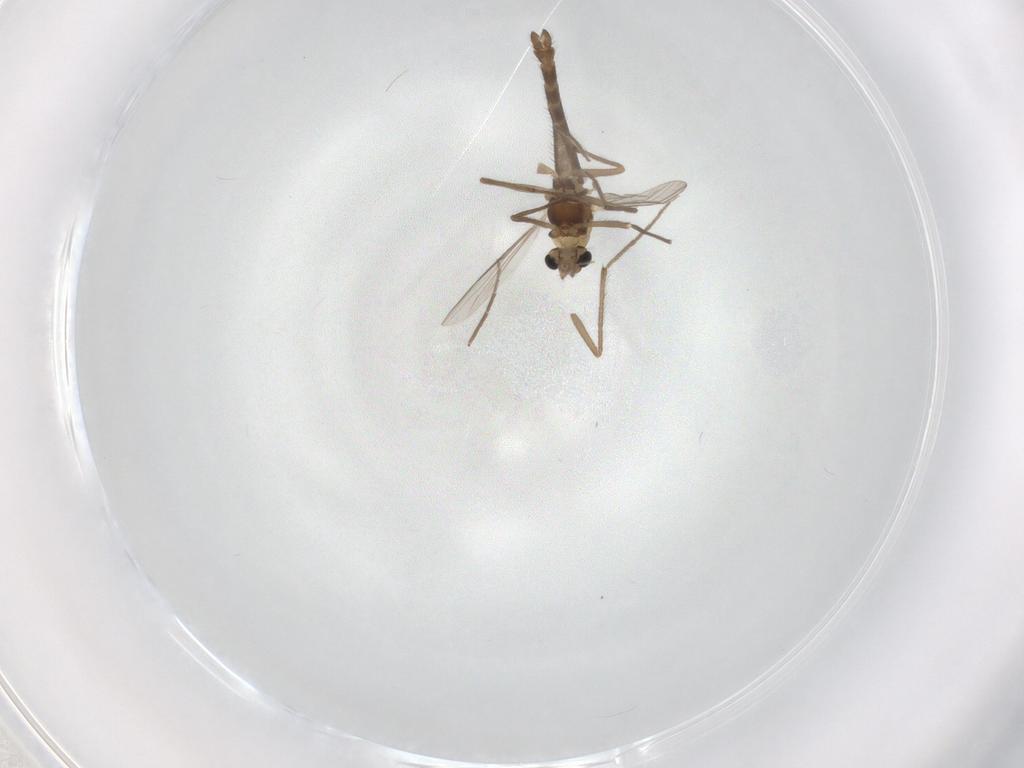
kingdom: Animalia
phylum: Arthropoda
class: Insecta
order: Diptera
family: Chironomidae
